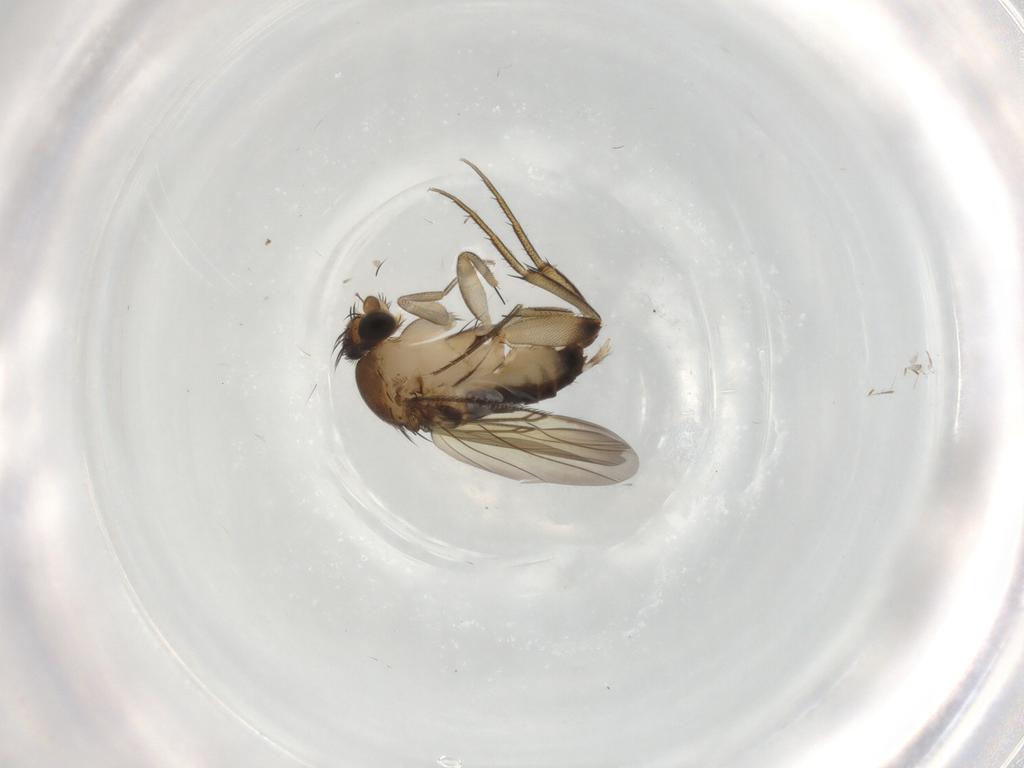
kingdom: Animalia
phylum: Arthropoda
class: Insecta
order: Diptera
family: Phoridae
